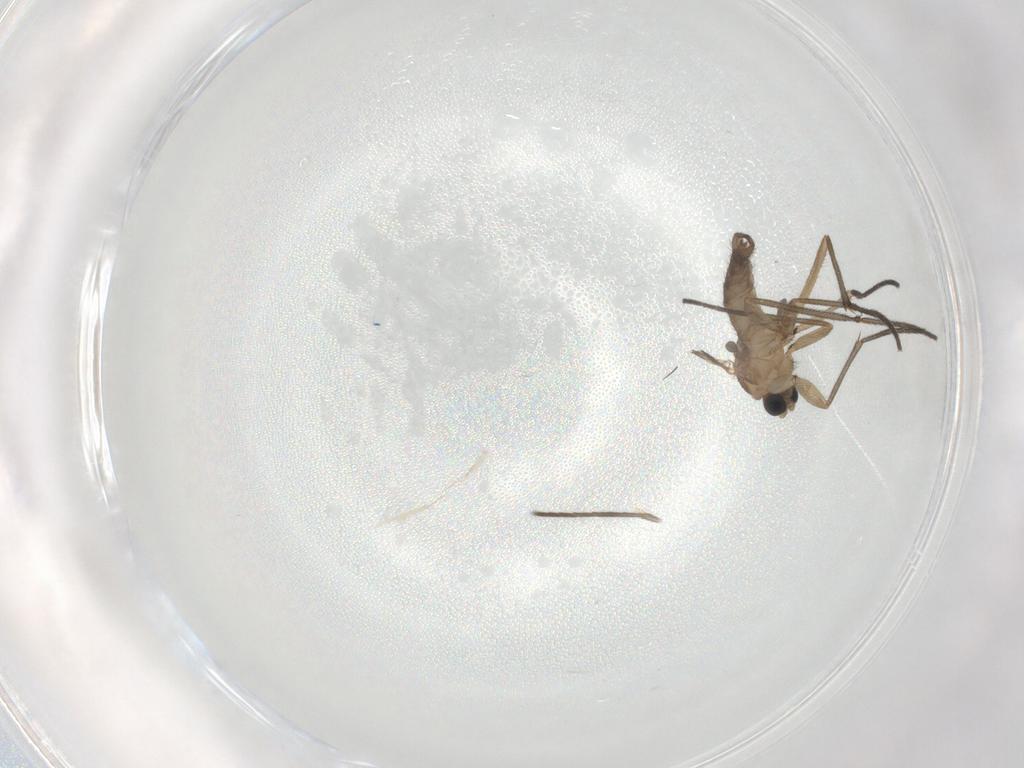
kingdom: Animalia
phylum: Arthropoda
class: Insecta
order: Diptera
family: Sciaridae
